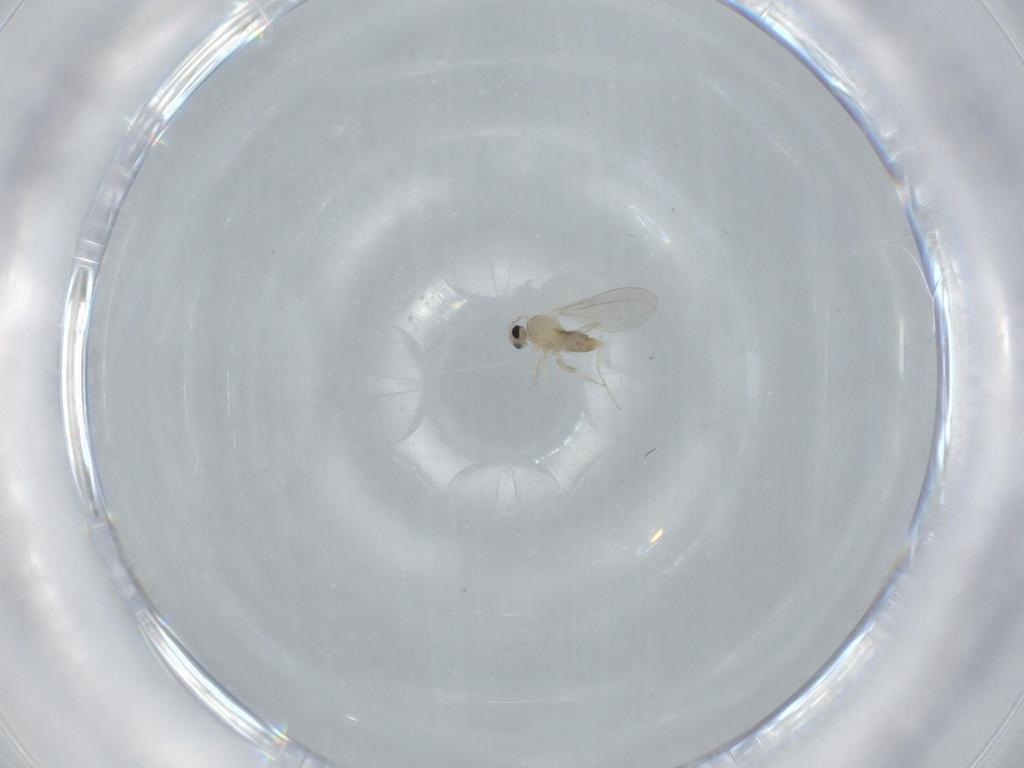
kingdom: Animalia
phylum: Arthropoda
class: Insecta
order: Diptera
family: Cecidomyiidae
